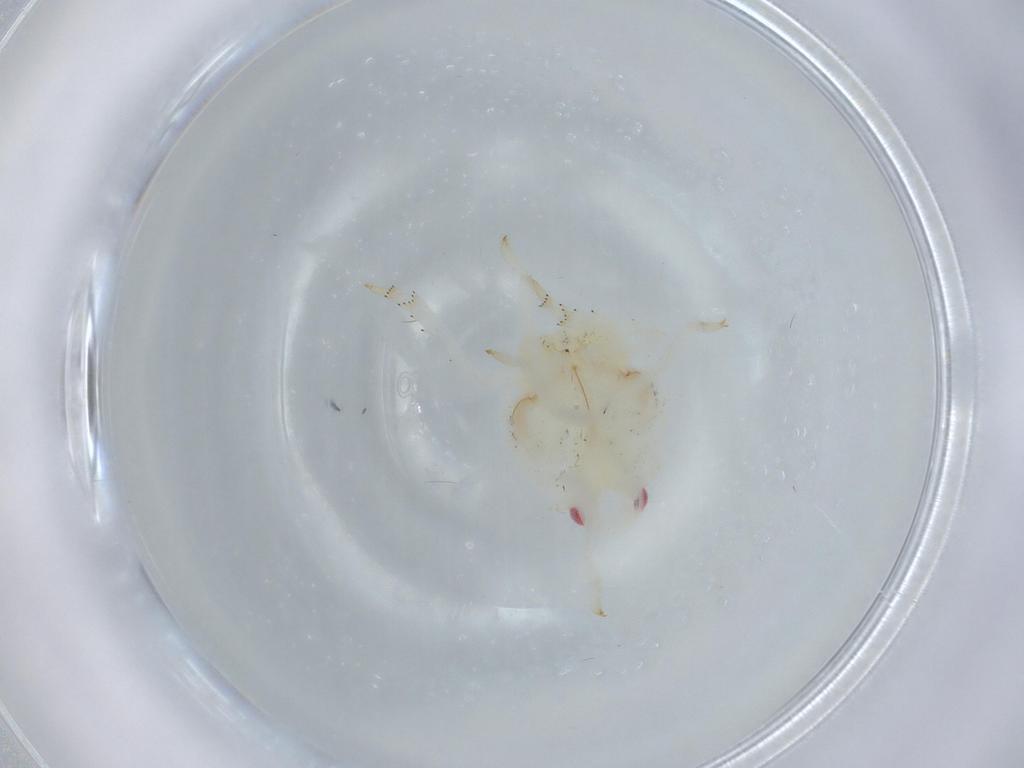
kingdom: Animalia
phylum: Arthropoda
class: Insecta
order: Hemiptera
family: Flatidae
